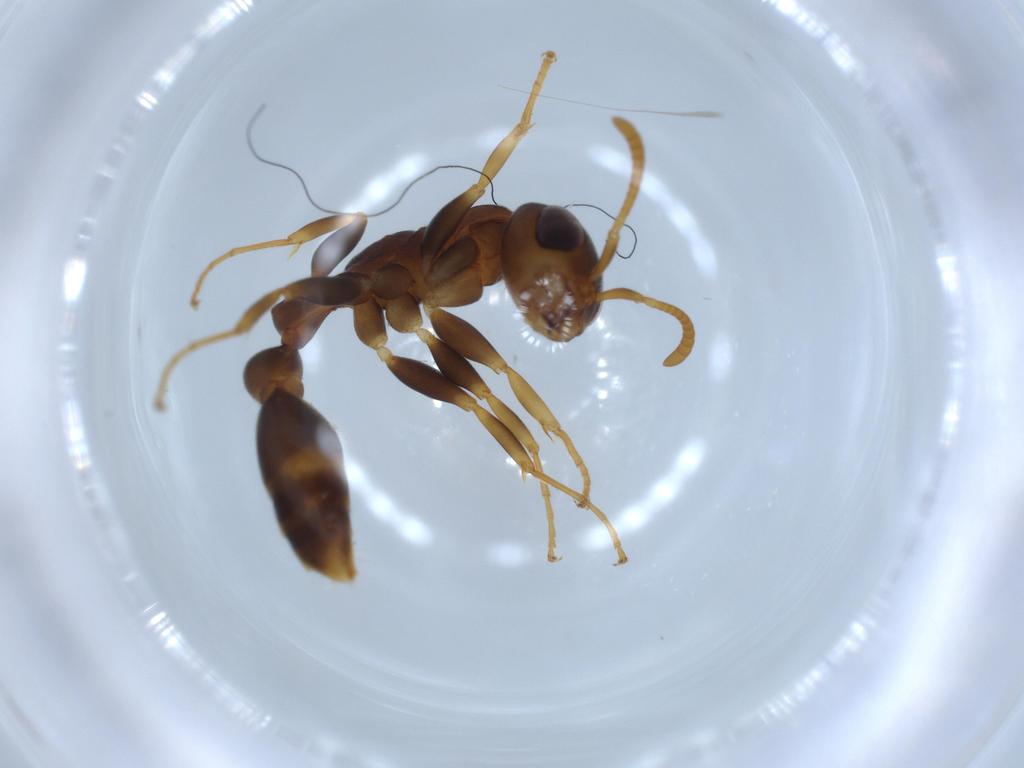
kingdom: Animalia
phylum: Arthropoda
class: Insecta
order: Hymenoptera
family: Formicidae
